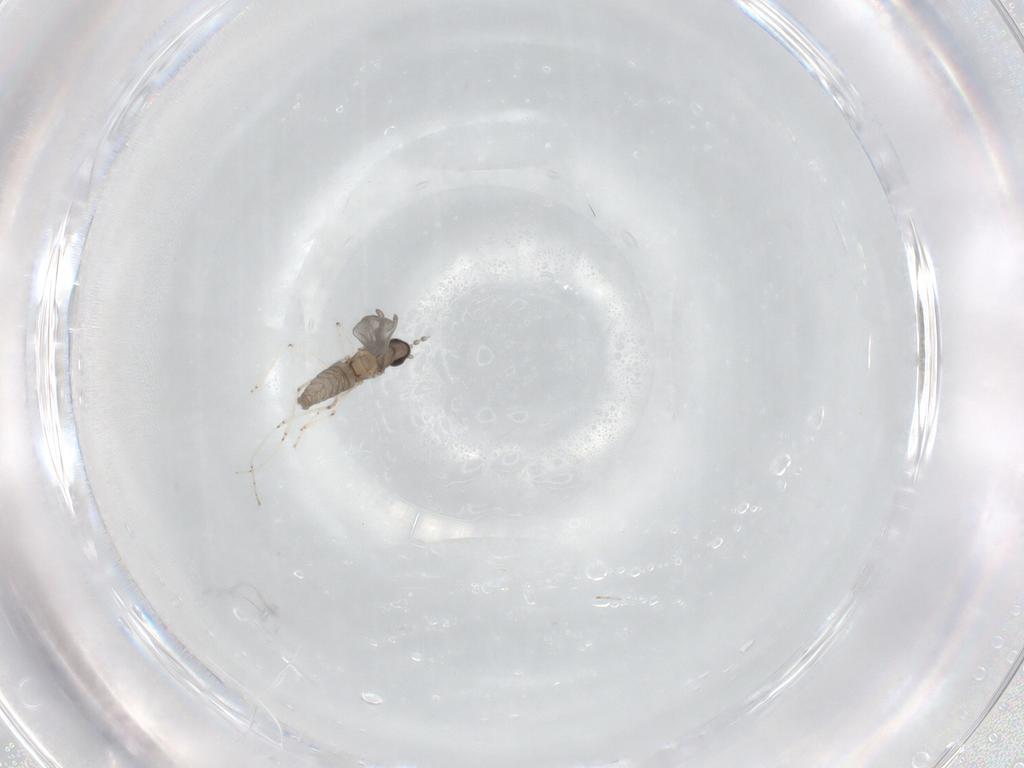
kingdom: Animalia
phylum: Arthropoda
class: Insecta
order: Diptera
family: Cecidomyiidae
